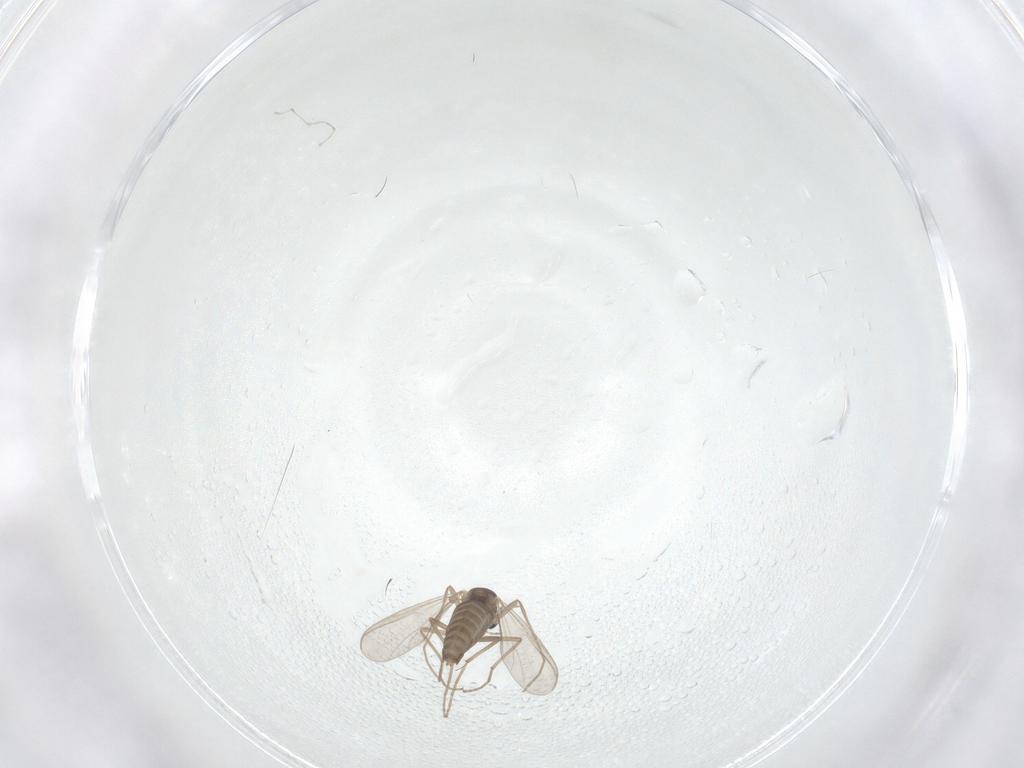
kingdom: Animalia
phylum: Arthropoda
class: Insecta
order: Diptera
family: Chironomidae
